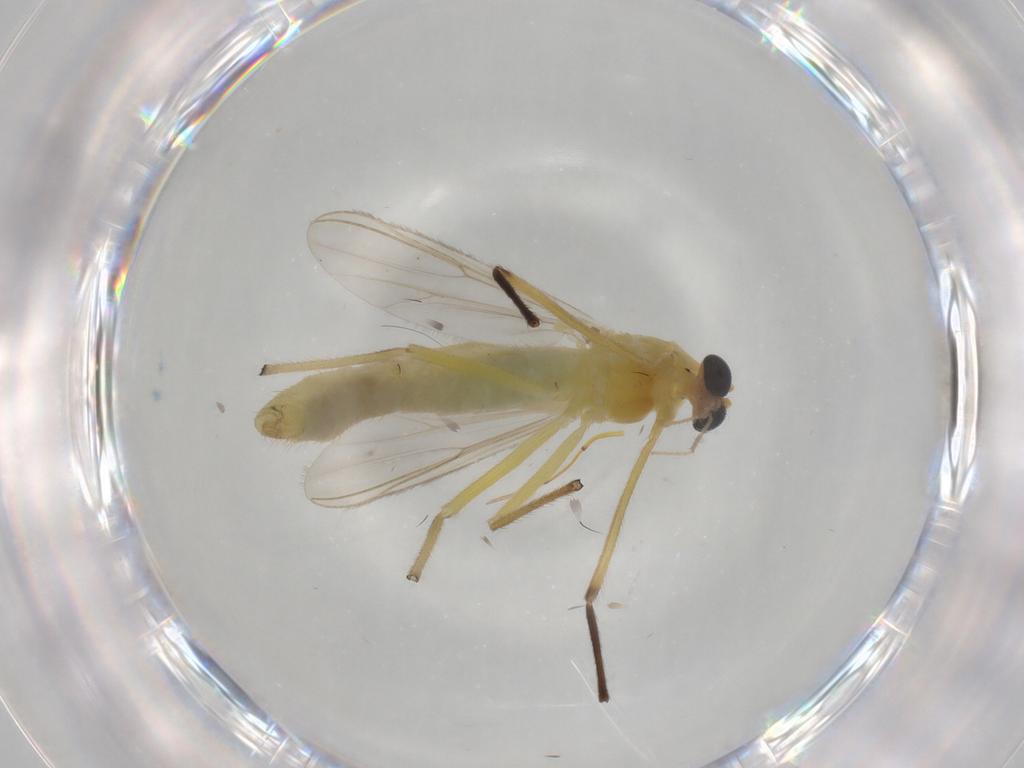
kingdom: Animalia
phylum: Arthropoda
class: Insecta
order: Diptera
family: Chironomidae
